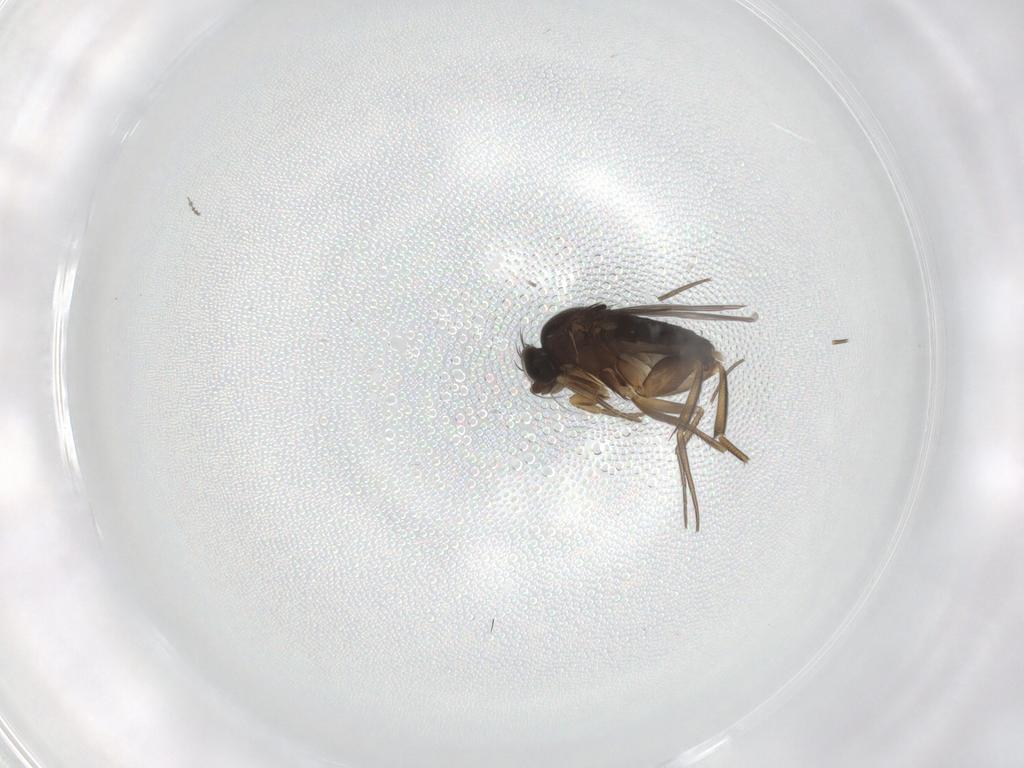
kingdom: Animalia
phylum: Arthropoda
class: Insecta
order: Diptera
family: Phoridae
